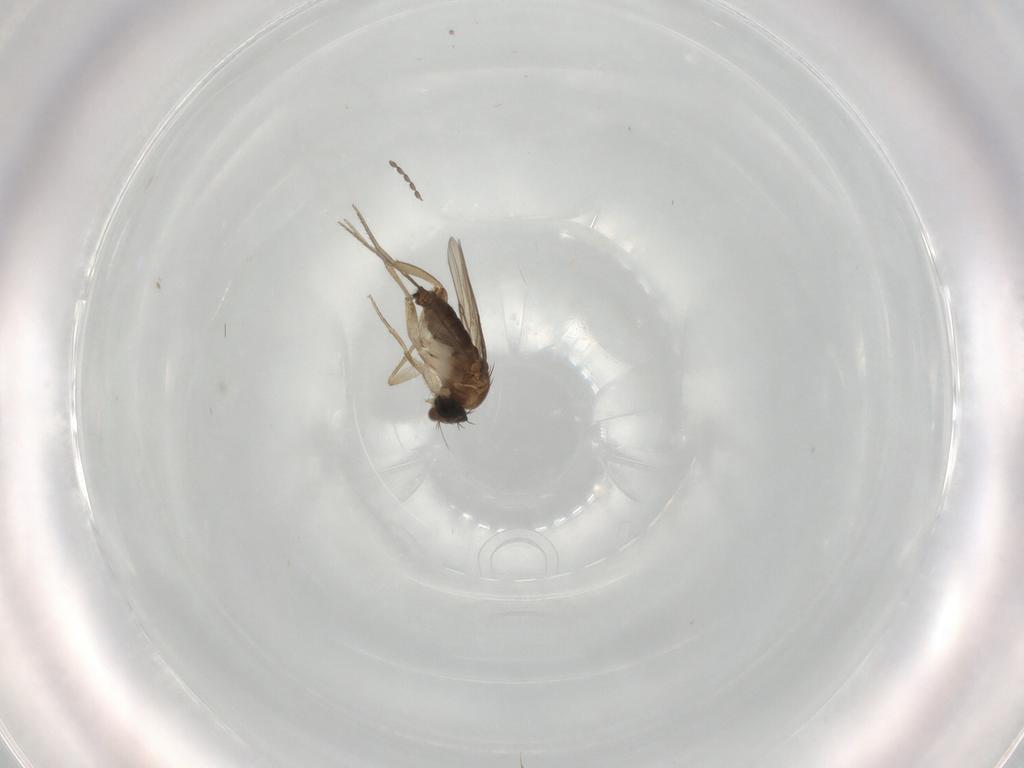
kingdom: Animalia
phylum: Arthropoda
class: Insecta
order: Diptera
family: Phoridae
